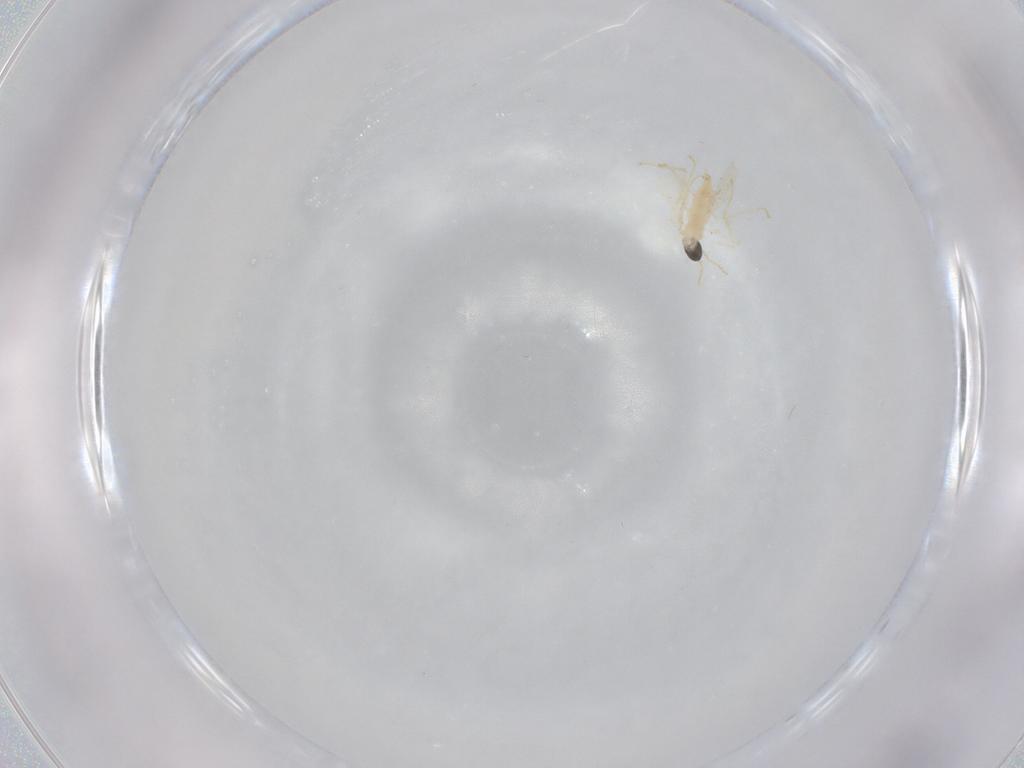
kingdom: Animalia
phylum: Arthropoda
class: Insecta
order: Diptera
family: Cecidomyiidae
